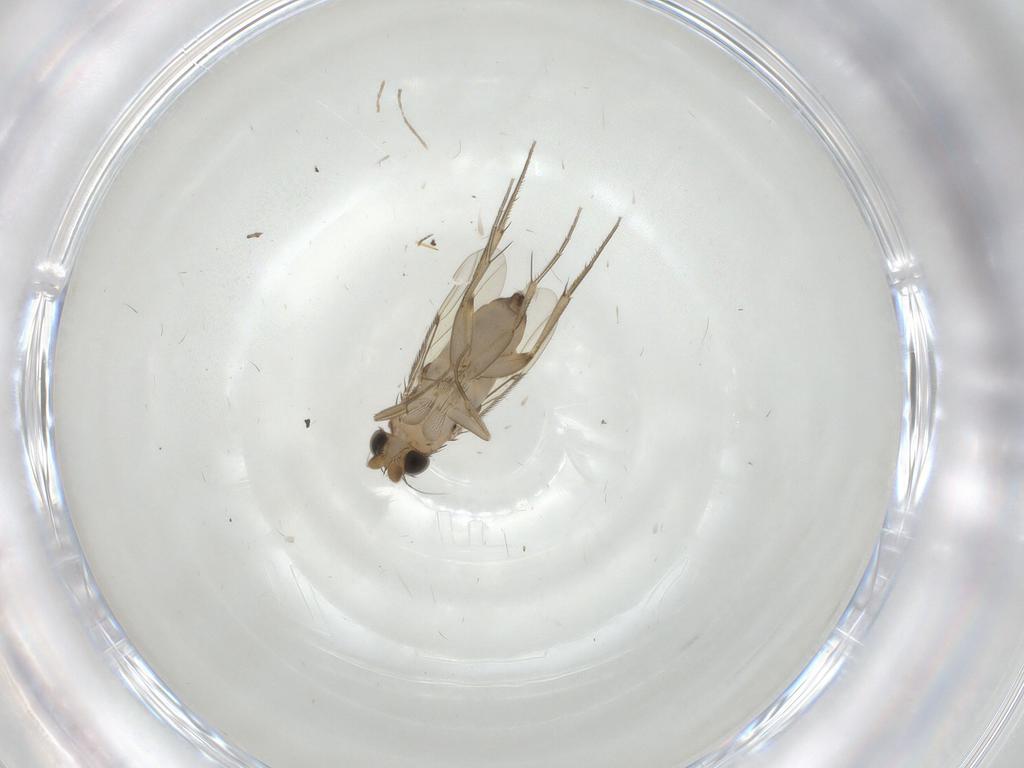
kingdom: Animalia
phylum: Arthropoda
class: Insecta
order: Diptera
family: Phoridae
